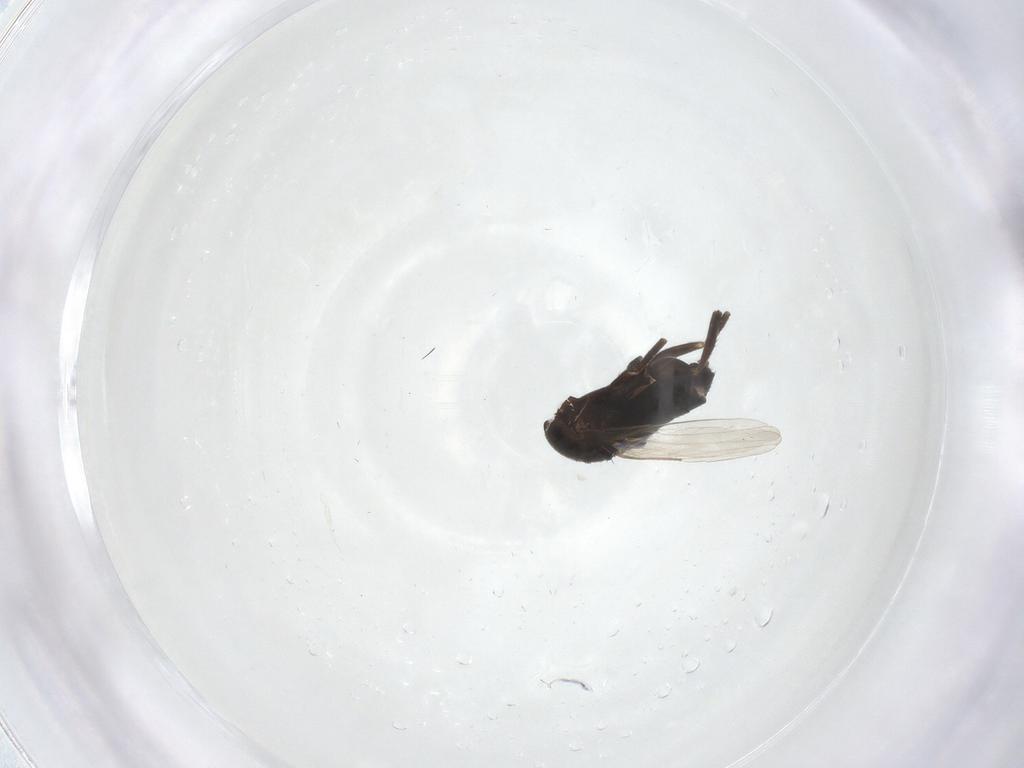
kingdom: Animalia
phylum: Arthropoda
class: Insecta
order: Diptera
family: Phoridae
